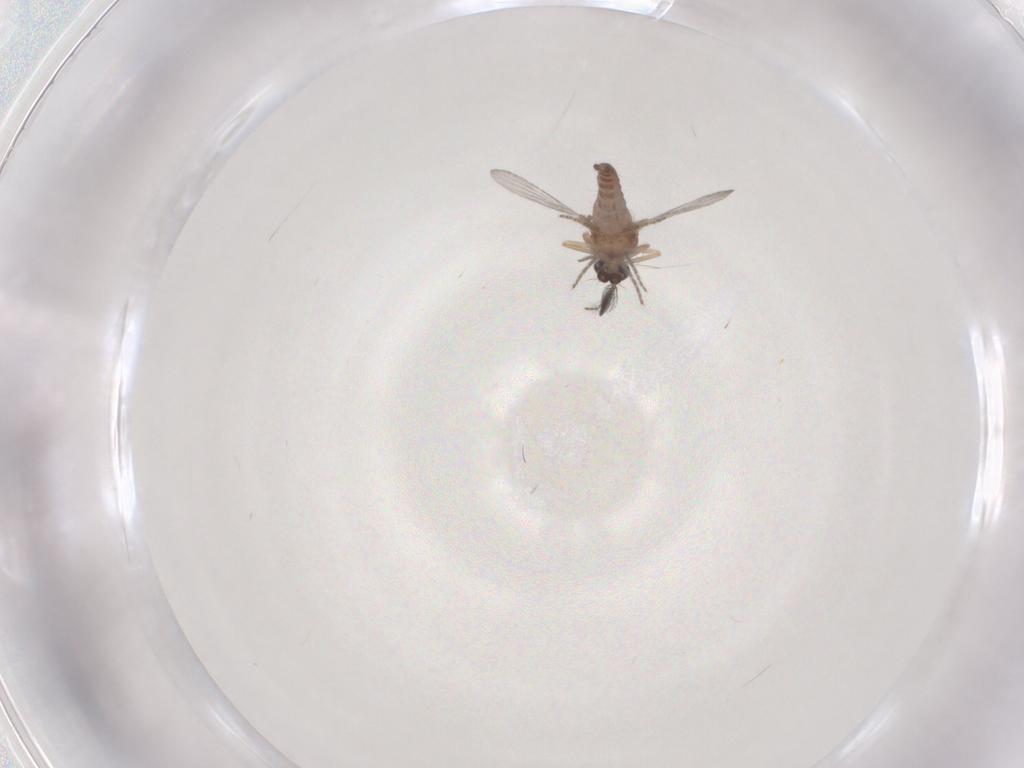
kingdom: Animalia
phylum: Arthropoda
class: Insecta
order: Diptera
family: Ceratopogonidae
